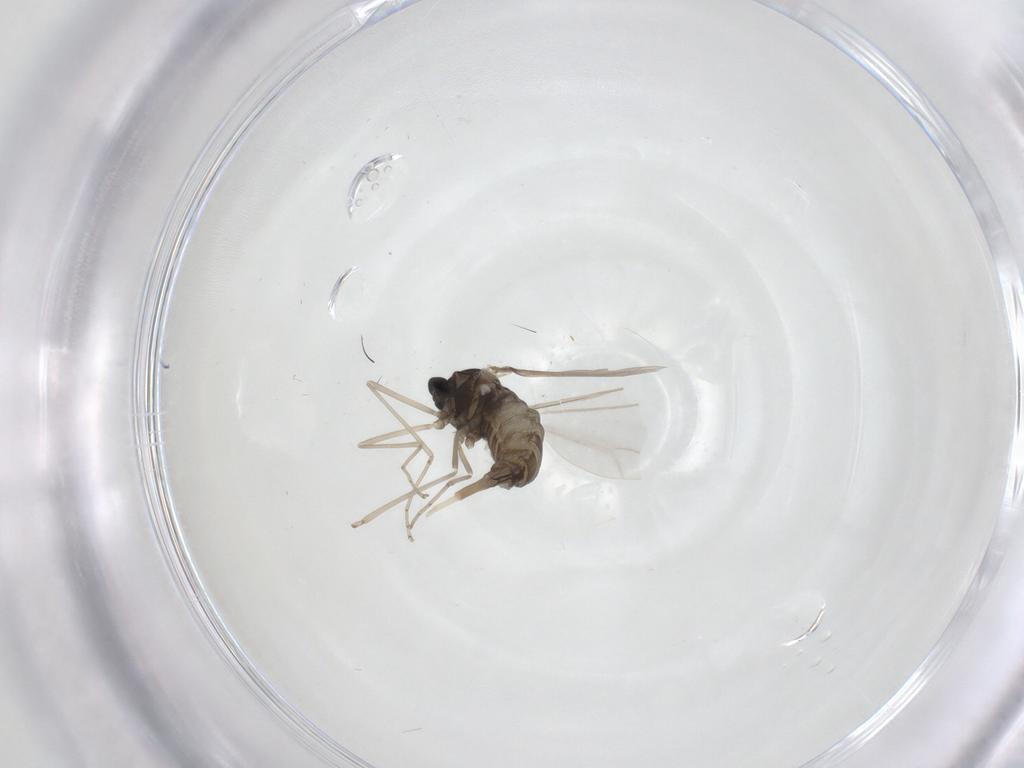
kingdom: Animalia
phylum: Arthropoda
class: Insecta
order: Diptera
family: Cecidomyiidae
